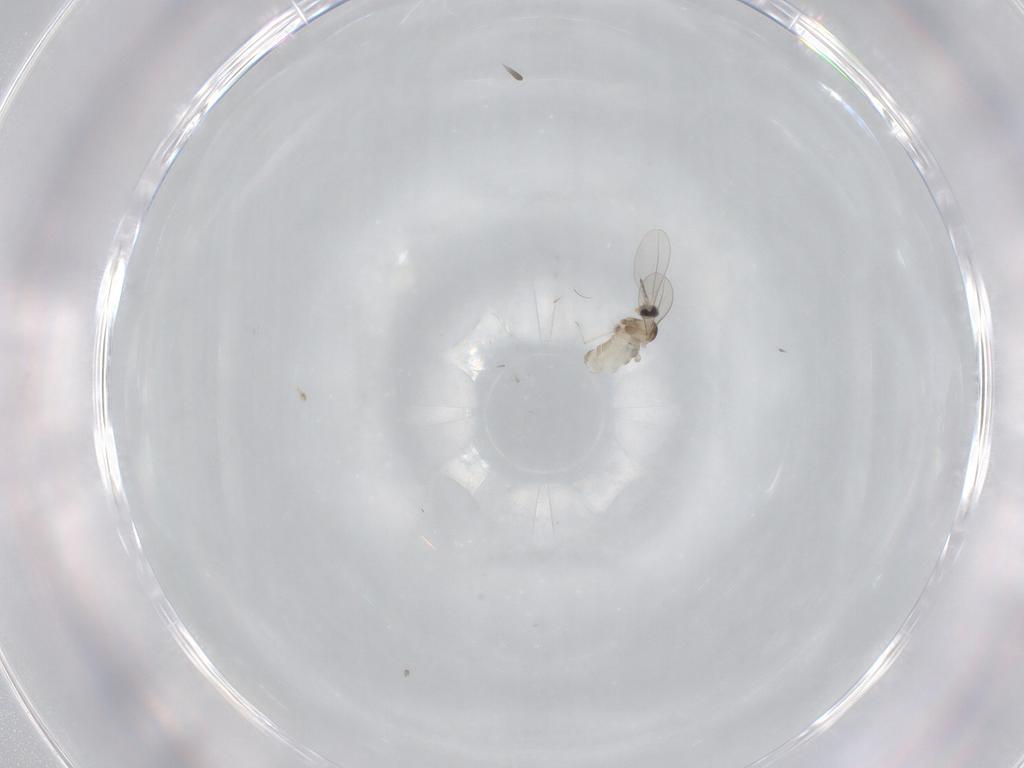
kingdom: Animalia
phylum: Arthropoda
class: Insecta
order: Diptera
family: Cecidomyiidae
